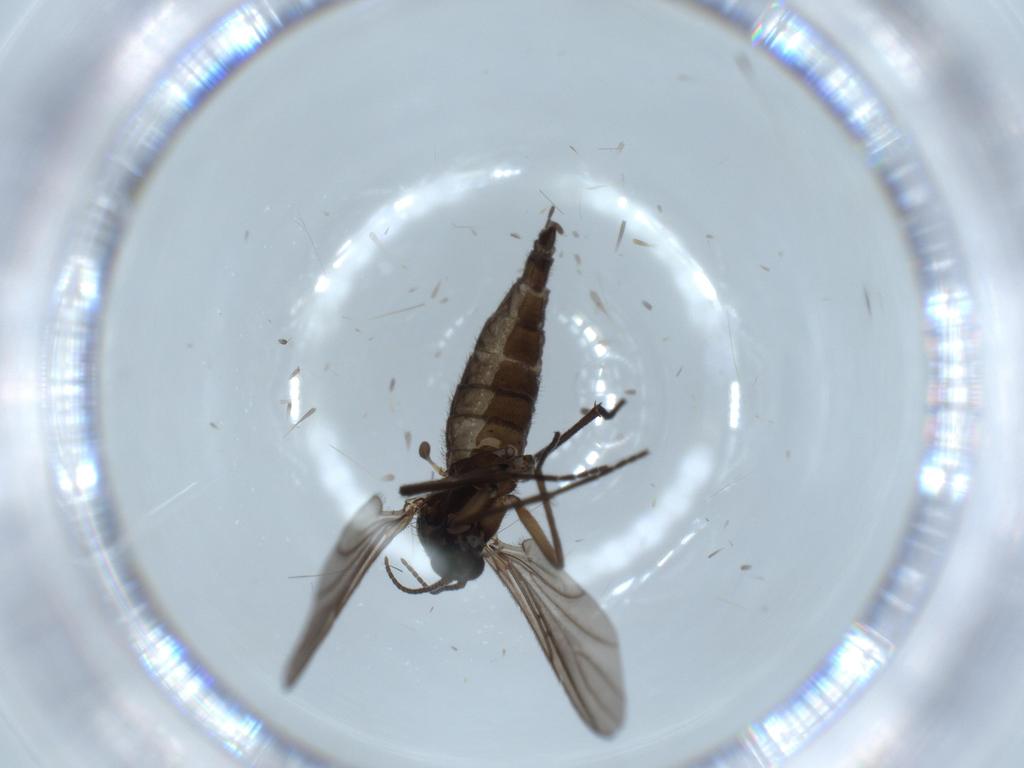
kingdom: Animalia
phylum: Arthropoda
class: Insecta
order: Diptera
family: Sciaridae
